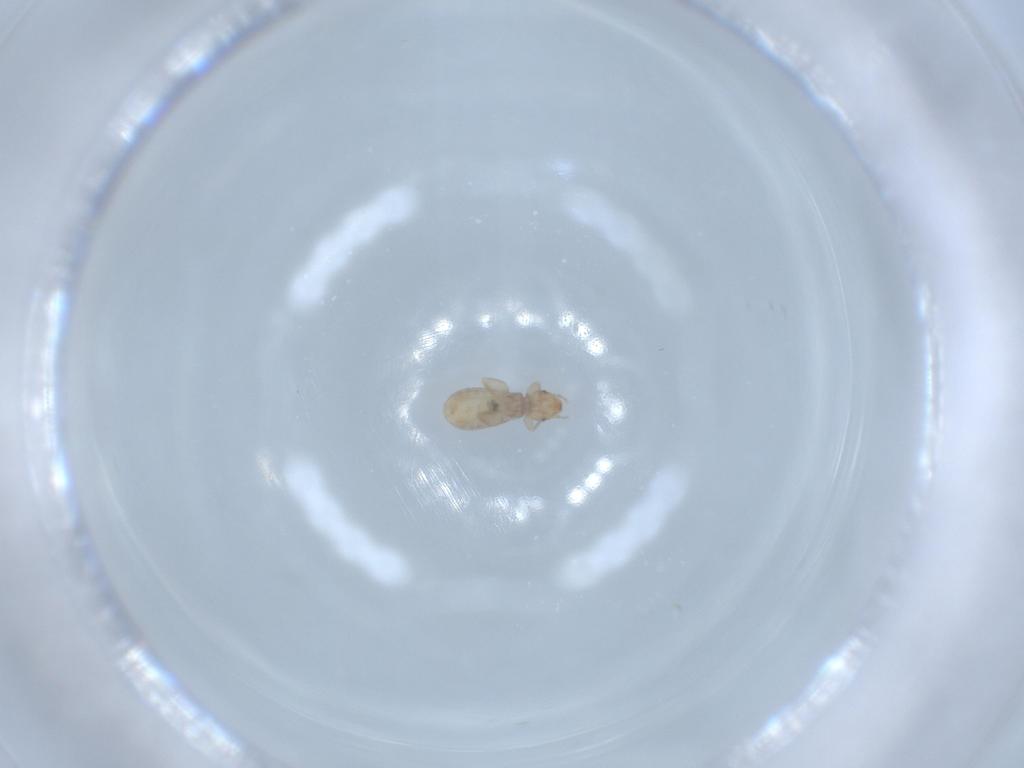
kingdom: Animalia
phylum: Arthropoda
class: Insecta
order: Psocodea
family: Liposcelididae
